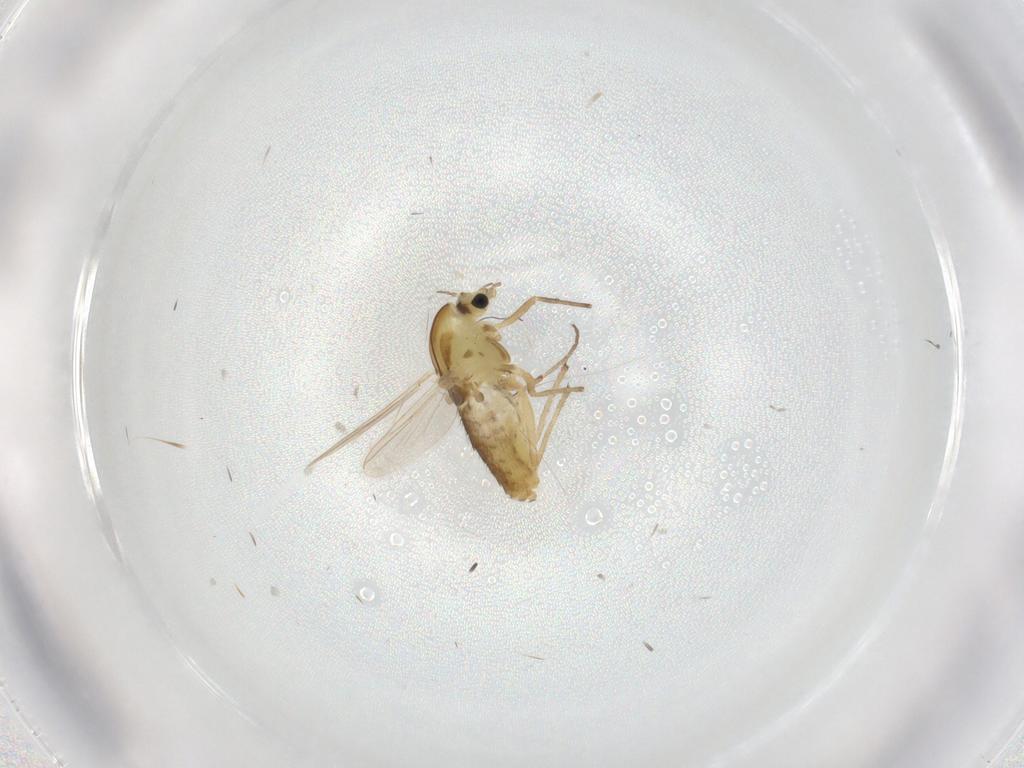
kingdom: Animalia
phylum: Arthropoda
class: Insecta
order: Diptera
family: Chironomidae
